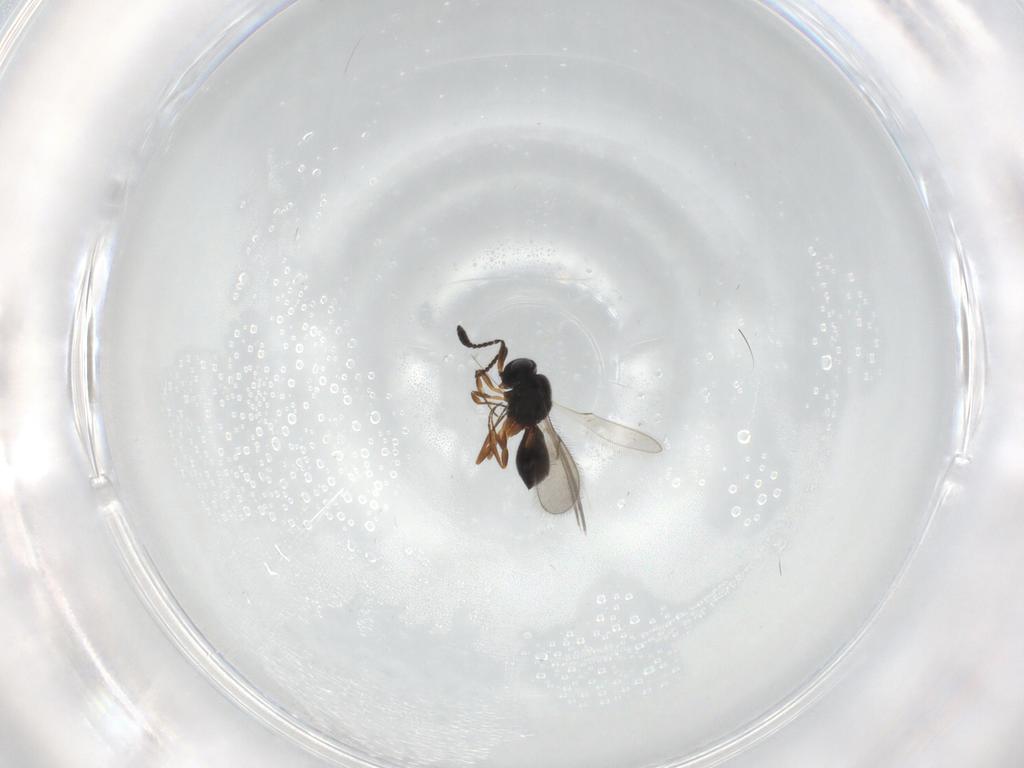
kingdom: Animalia
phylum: Arthropoda
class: Insecta
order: Hymenoptera
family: Scelionidae
